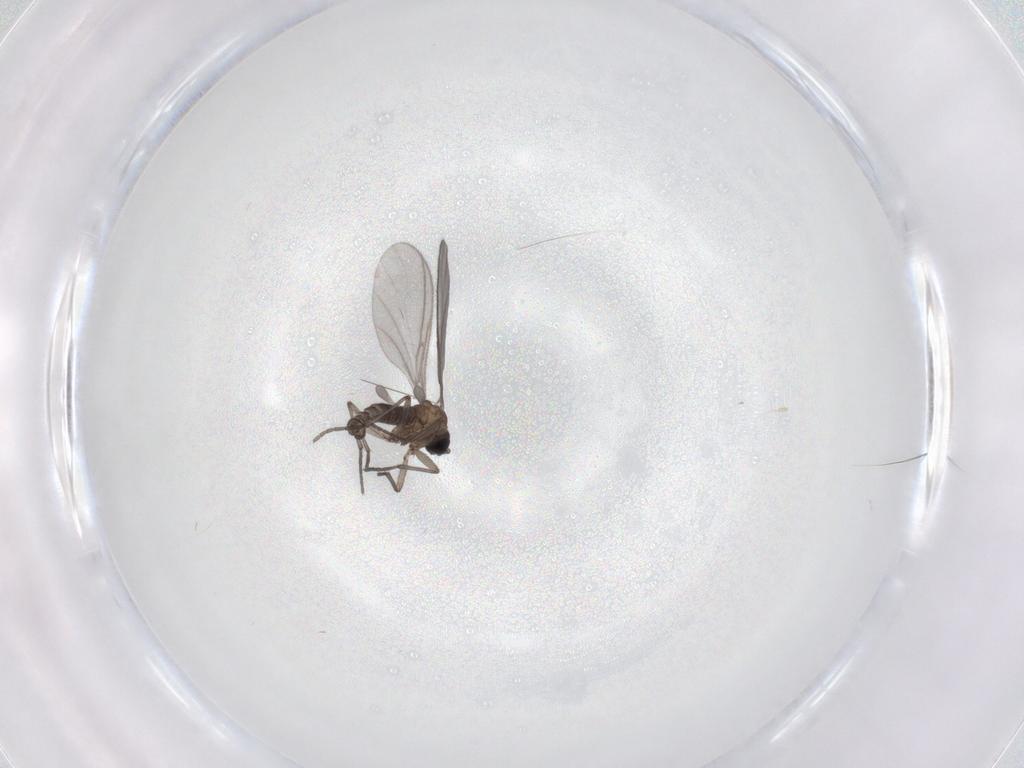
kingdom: Animalia
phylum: Arthropoda
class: Insecta
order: Diptera
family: Sciaridae
